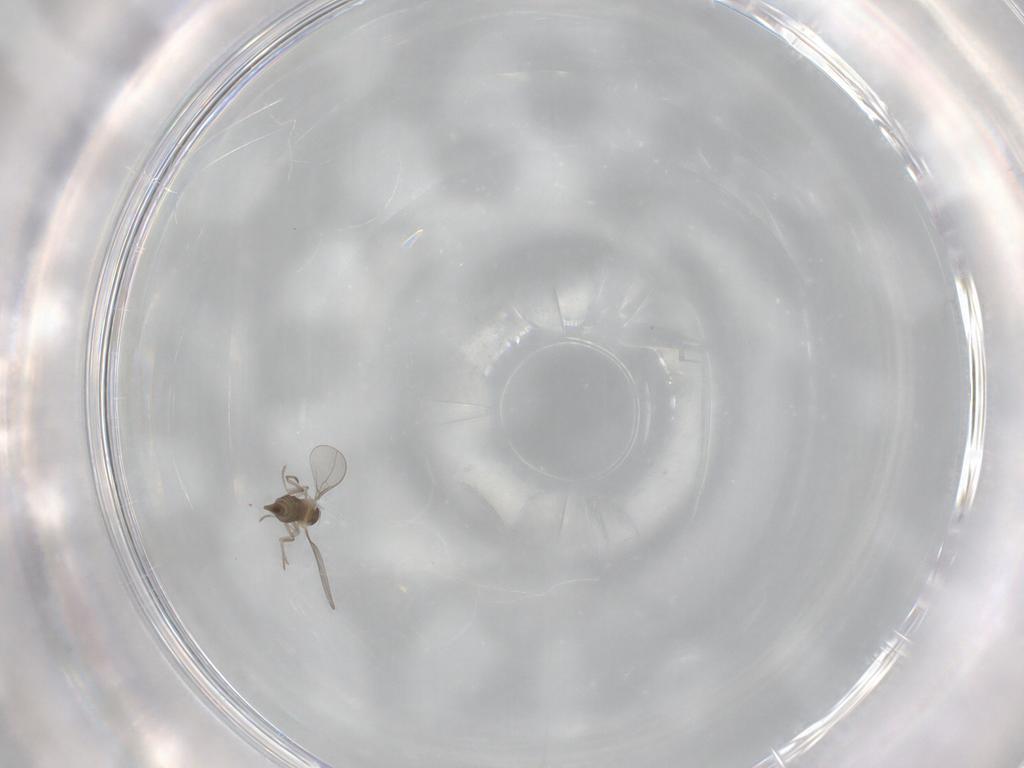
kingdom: Animalia
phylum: Arthropoda
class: Insecta
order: Diptera
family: Cecidomyiidae
